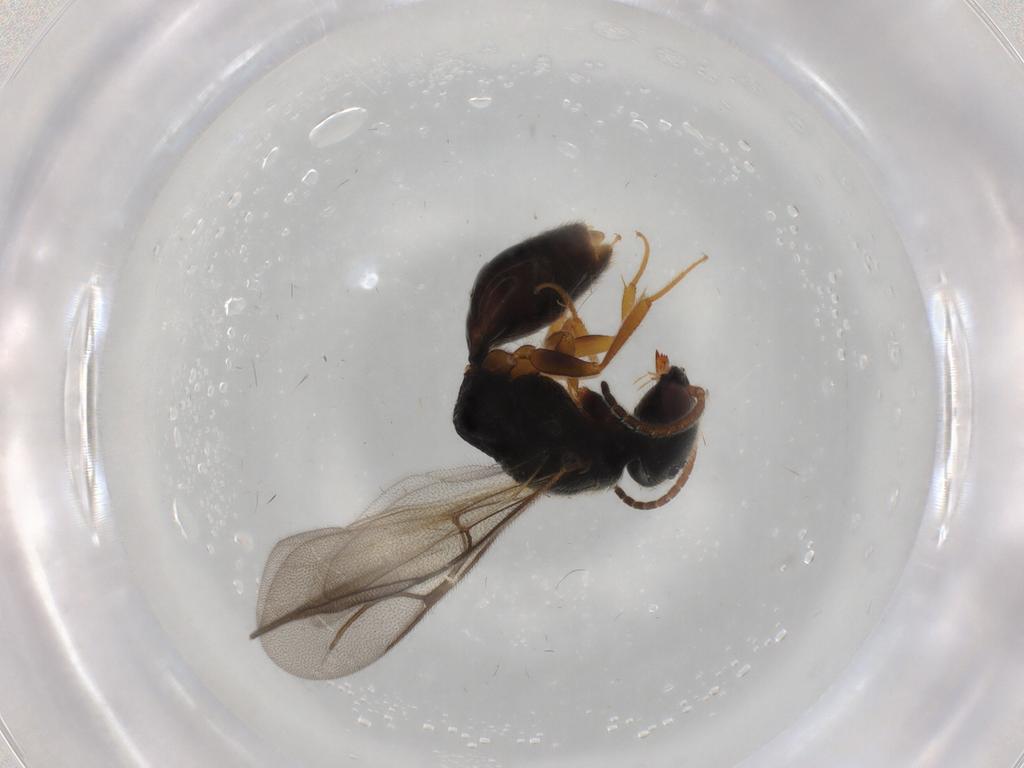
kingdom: Animalia
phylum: Arthropoda
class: Insecta
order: Hymenoptera
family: Bethylidae
